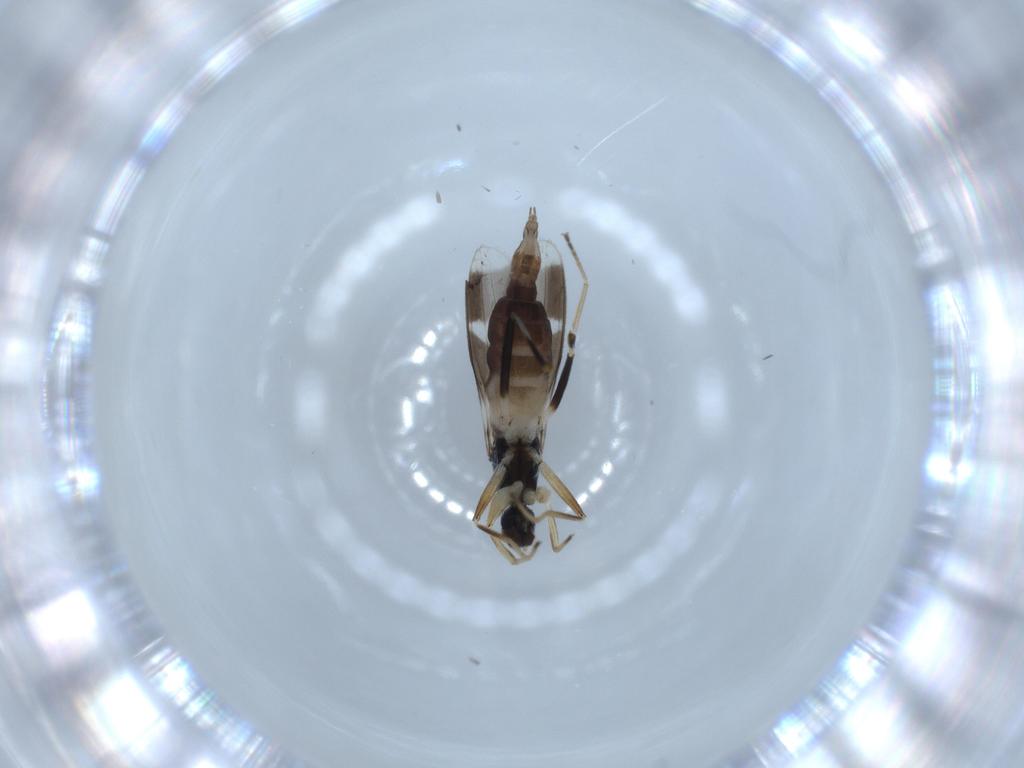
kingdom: Animalia
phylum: Arthropoda
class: Insecta
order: Diptera
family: Hybotidae
